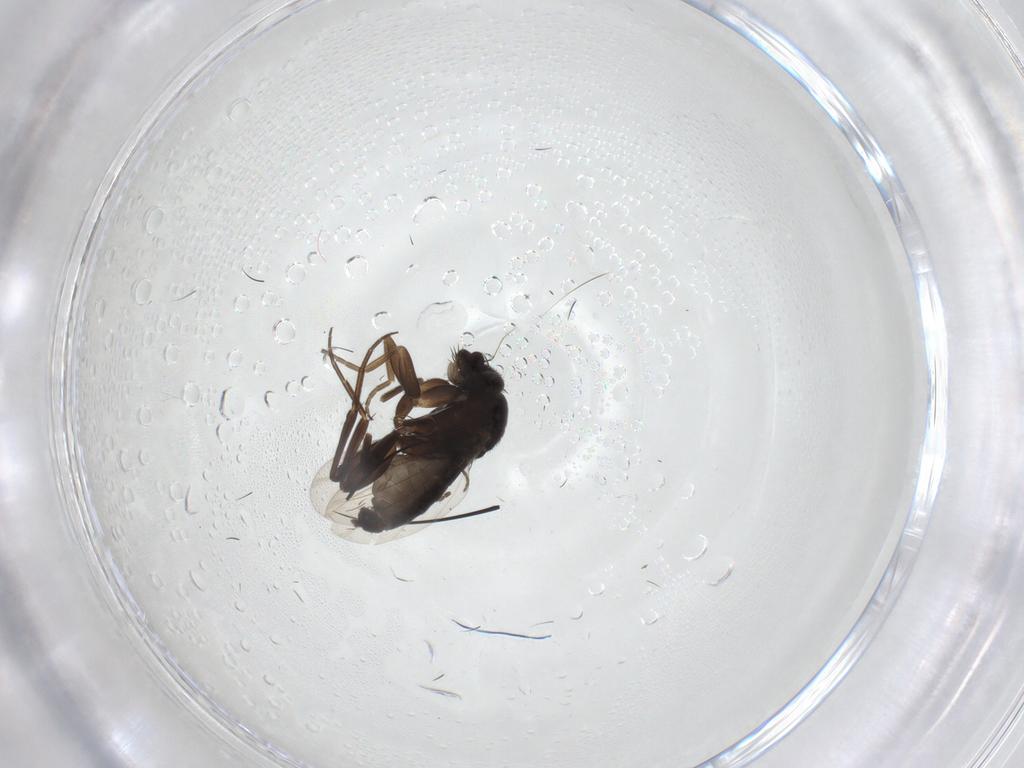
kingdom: Animalia
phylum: Arthropoda
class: Insecta
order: Diptera
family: Sciaridae
